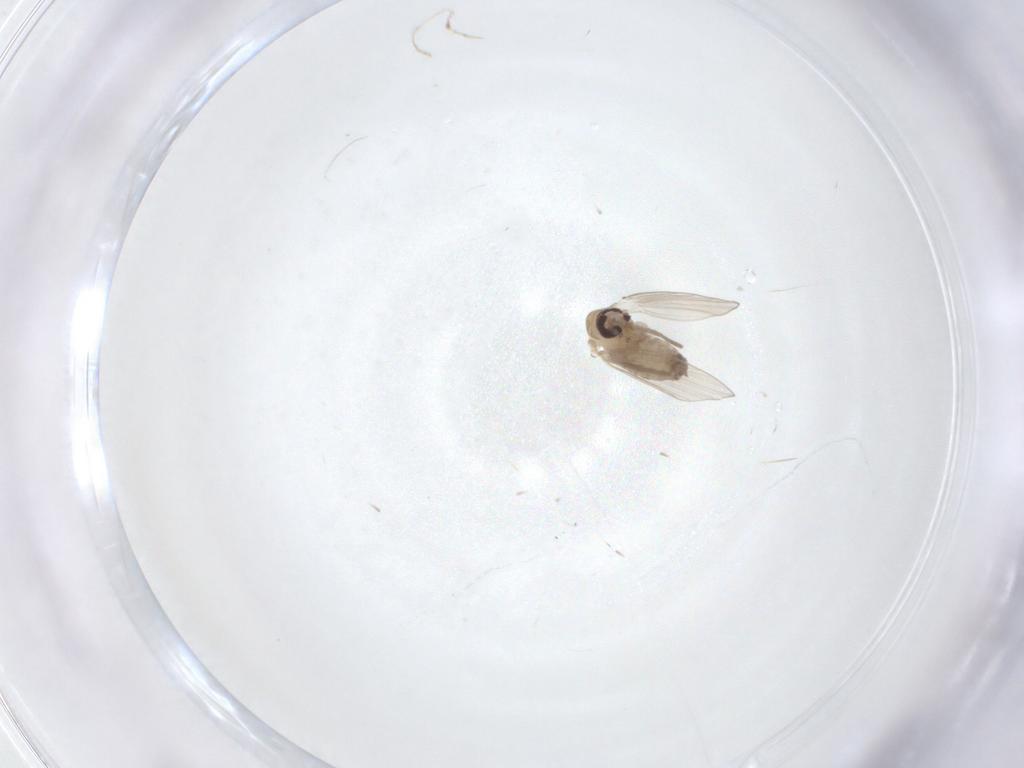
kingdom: Animalia
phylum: Arthropoda
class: Insecta
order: Diptera
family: Psychodidae
